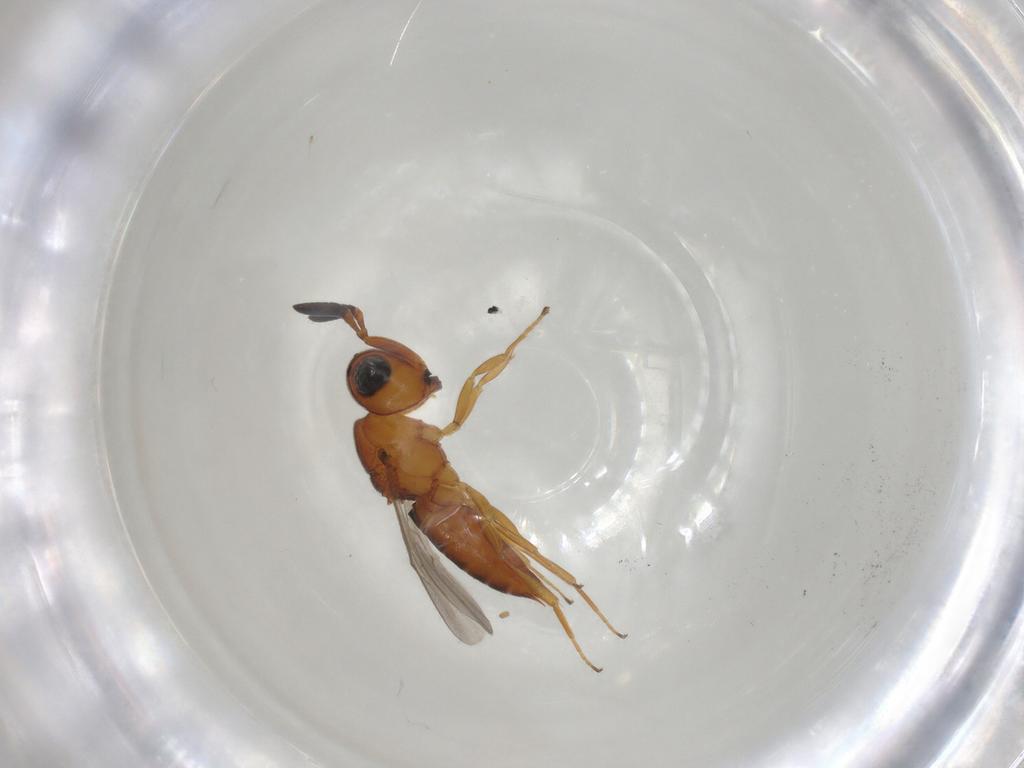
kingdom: Animalia
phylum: Arthropoda
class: Insecta
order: Hymenoptera
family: Scelionidae
